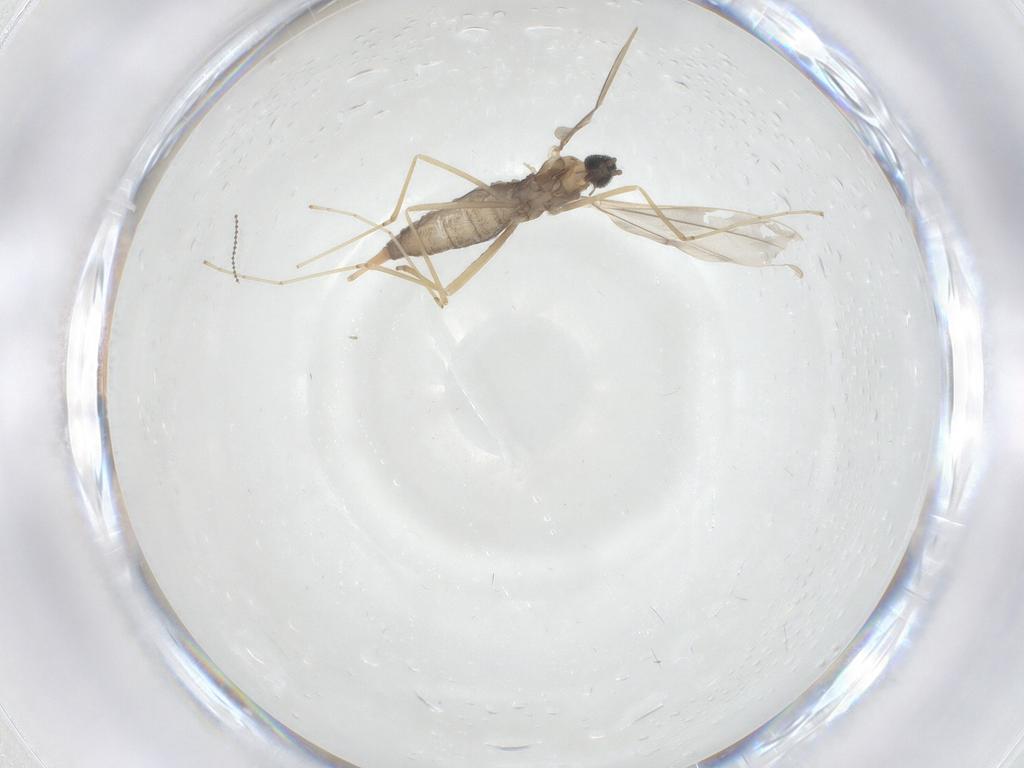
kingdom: Animalia
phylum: Arthropoda
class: Insecta
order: Diptera
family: Cecidomyiidae
